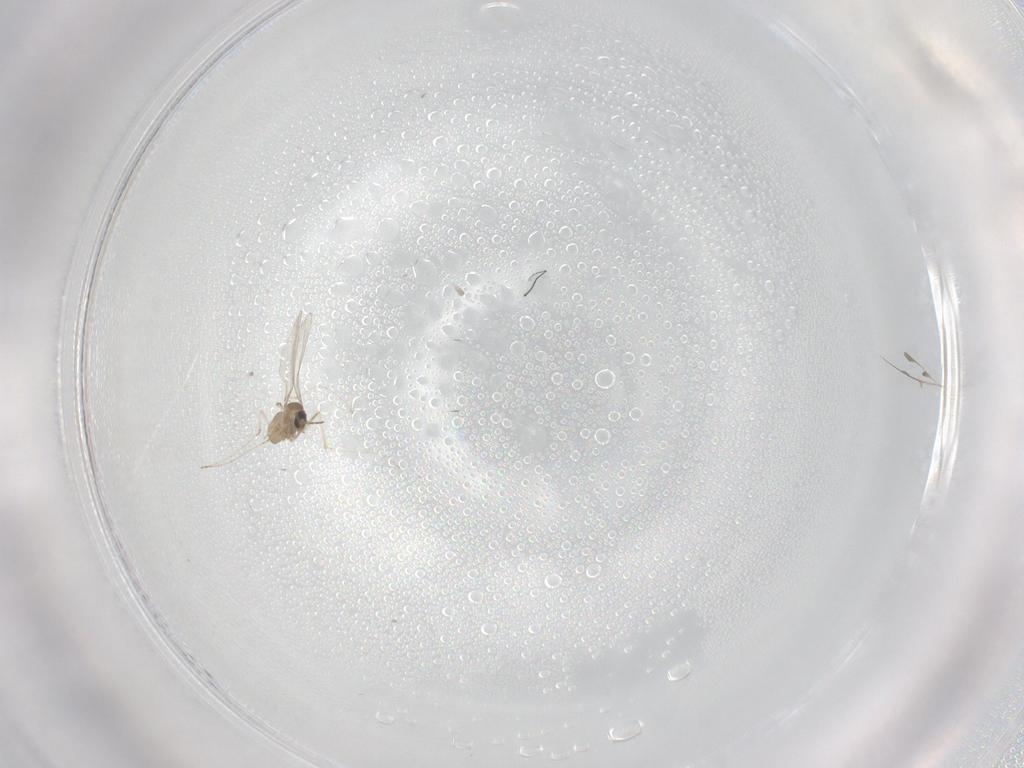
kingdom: Animalia
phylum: Arthropoda
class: Insecta
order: Diptera
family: Cecidomyiidae
